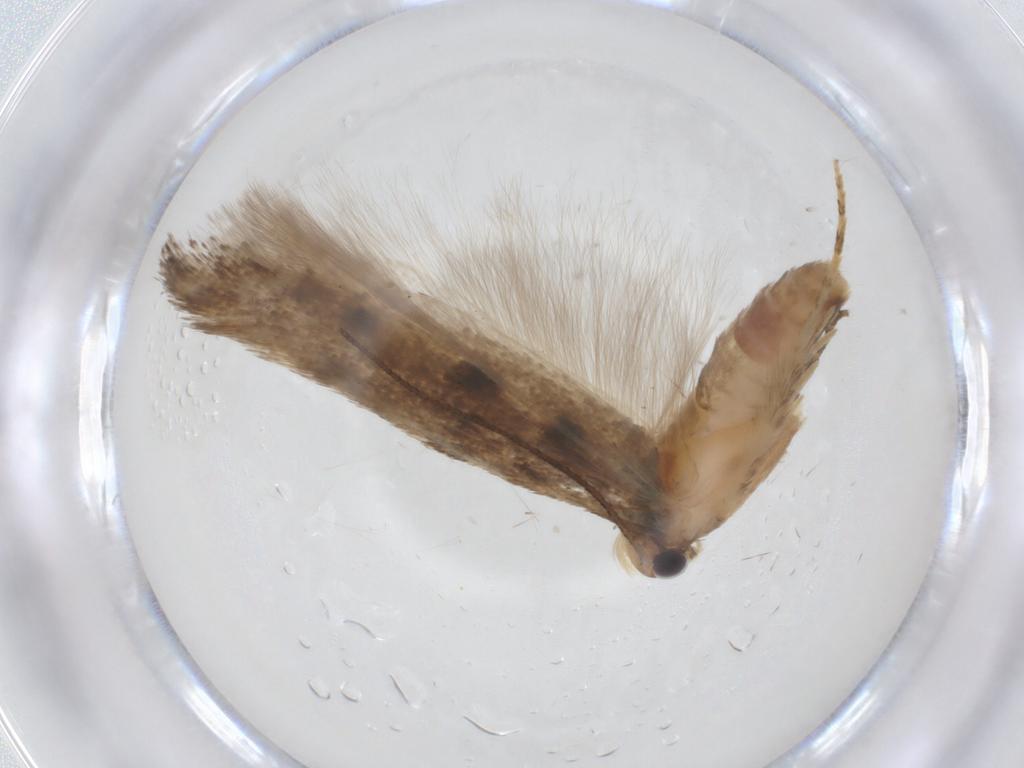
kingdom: Animalia
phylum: Arthropoda
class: Insecta
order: Lepidoptera
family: Gelechiidae
